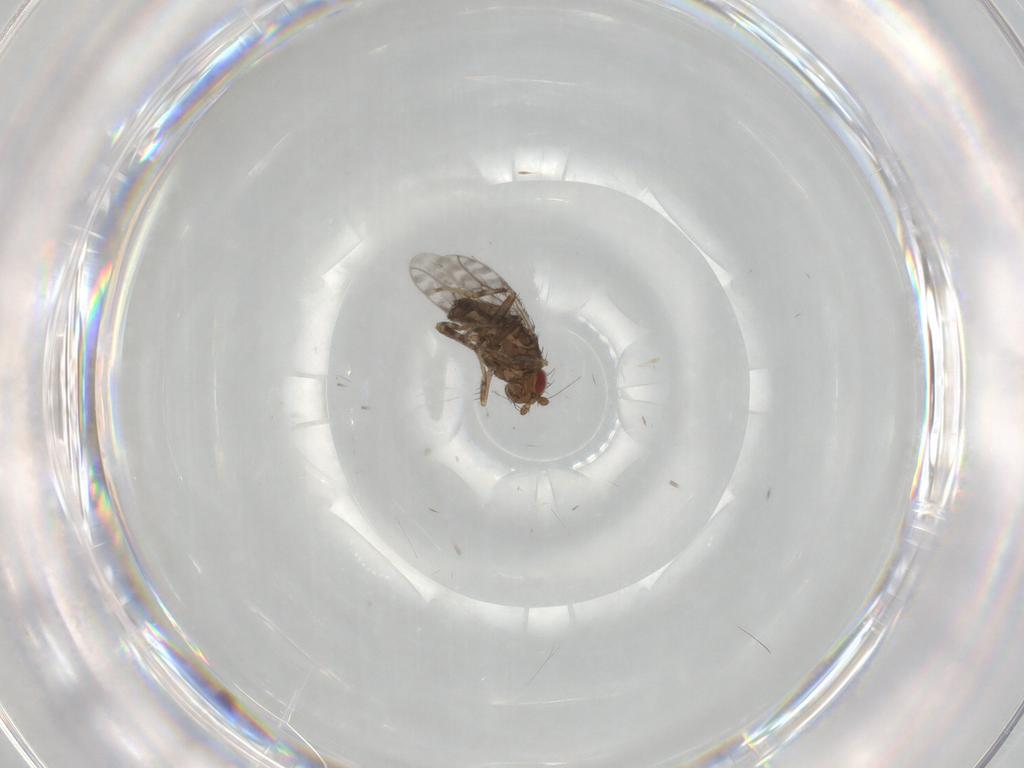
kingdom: Animalia
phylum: Arthropoda
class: Insecta
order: Diptera
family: Sphaeroceridae
